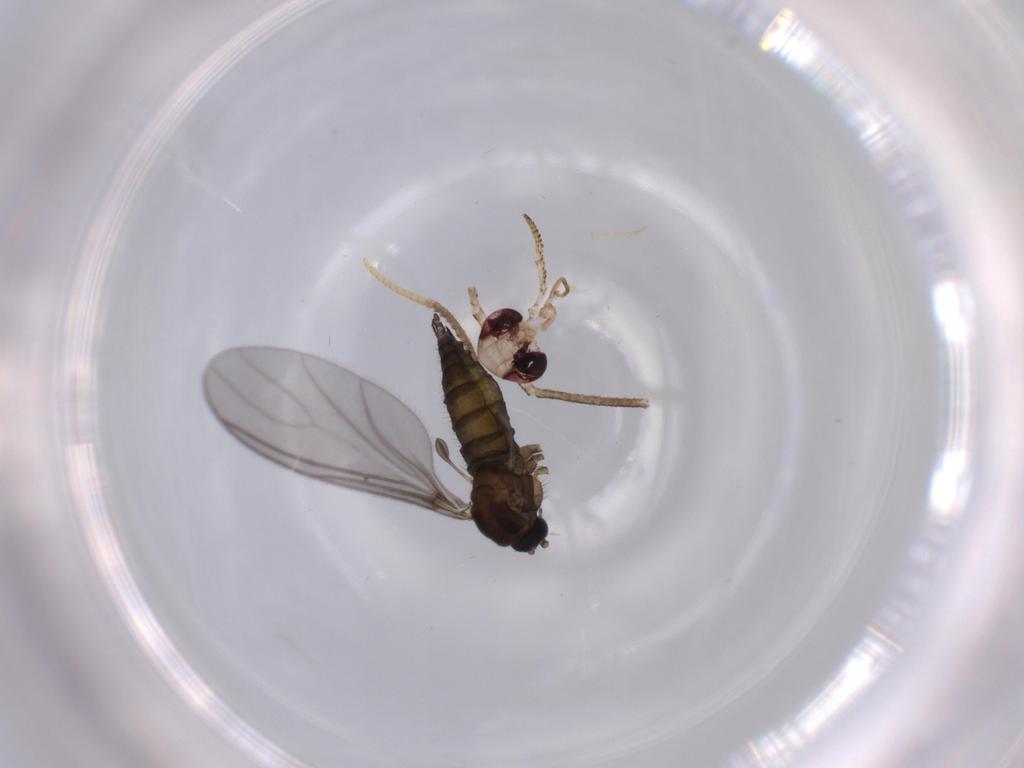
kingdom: Animalia
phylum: Arthropoda
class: Insecta
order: Diptera
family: Sciaridae
